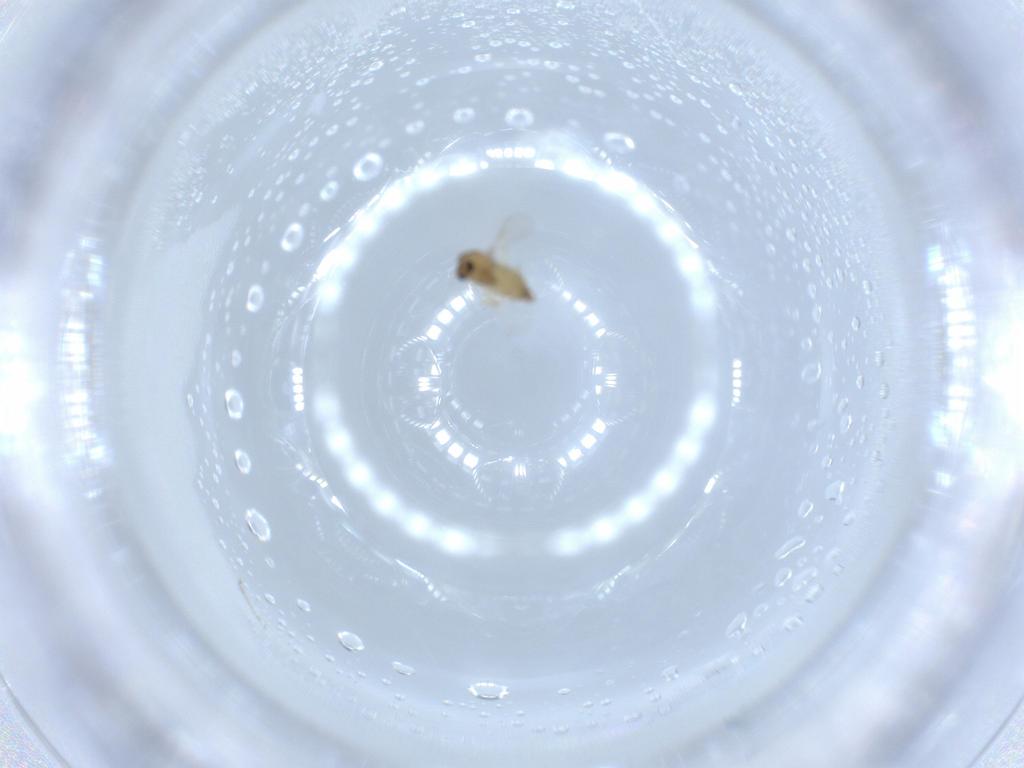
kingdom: Animalia
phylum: Arthropoda
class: Insecta
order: Diptera
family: Chironomidae
